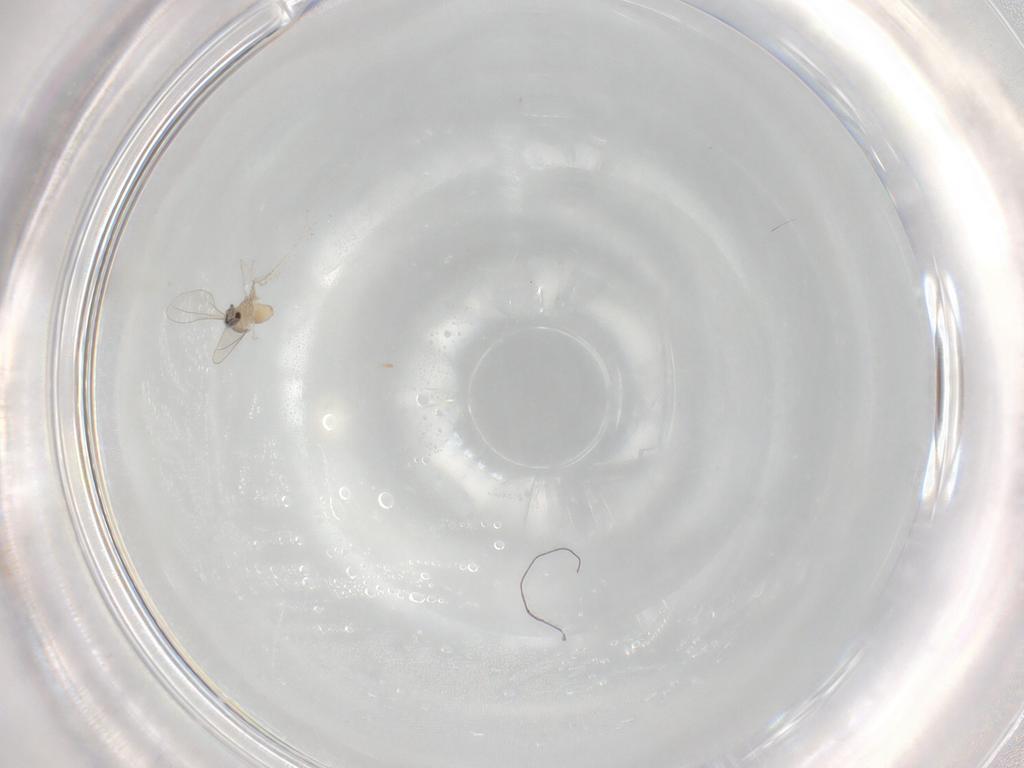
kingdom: Animalia
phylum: Arthropoda
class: Insecta
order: Diptera
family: Cecidomyiidae
